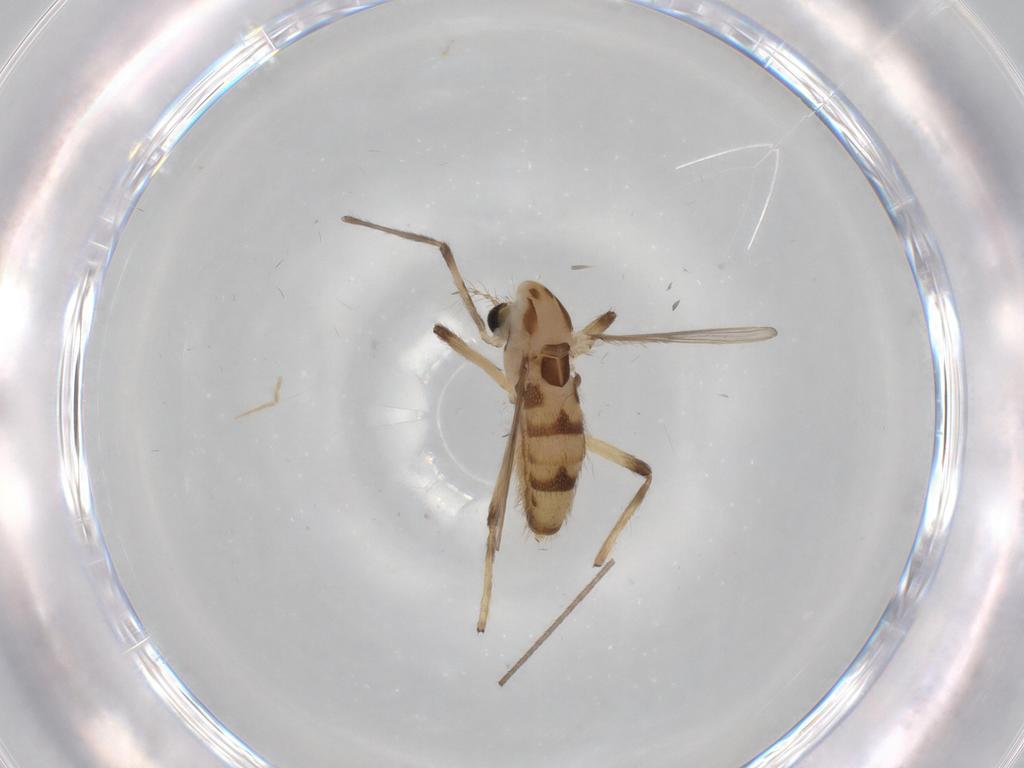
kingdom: Animalia
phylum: Arthropoda
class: Insecta
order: Diptera
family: Chironomidae
